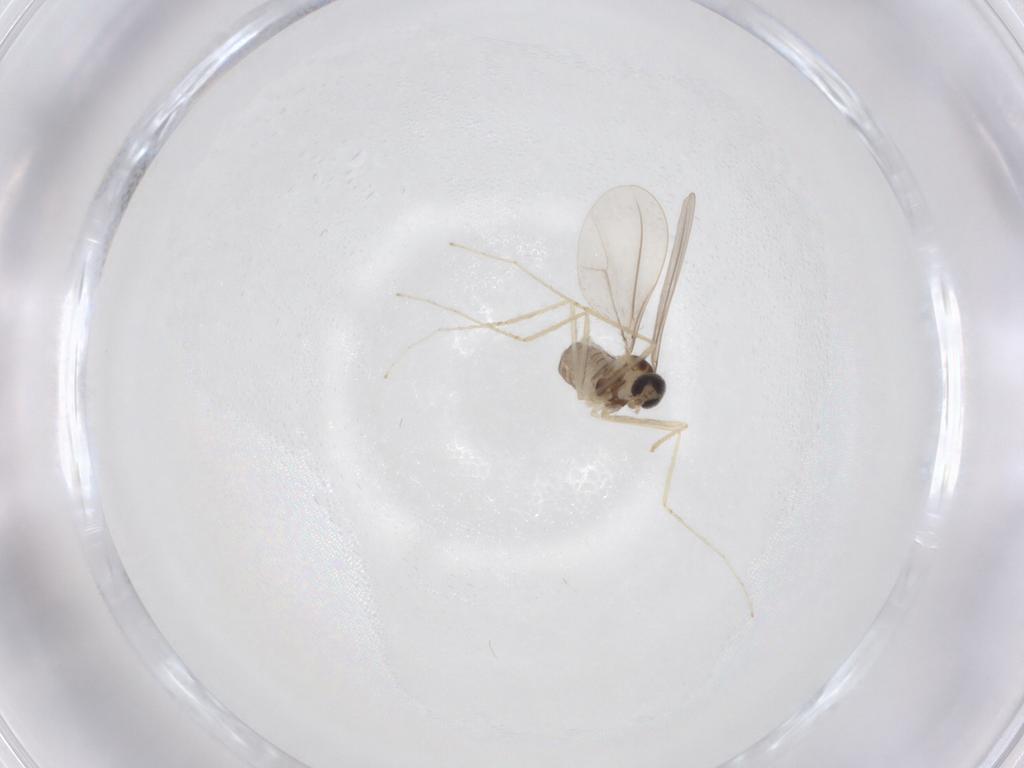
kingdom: Animalia
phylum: Arthropoda
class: Insecta
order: Diptera
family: Cecidomyiidae
